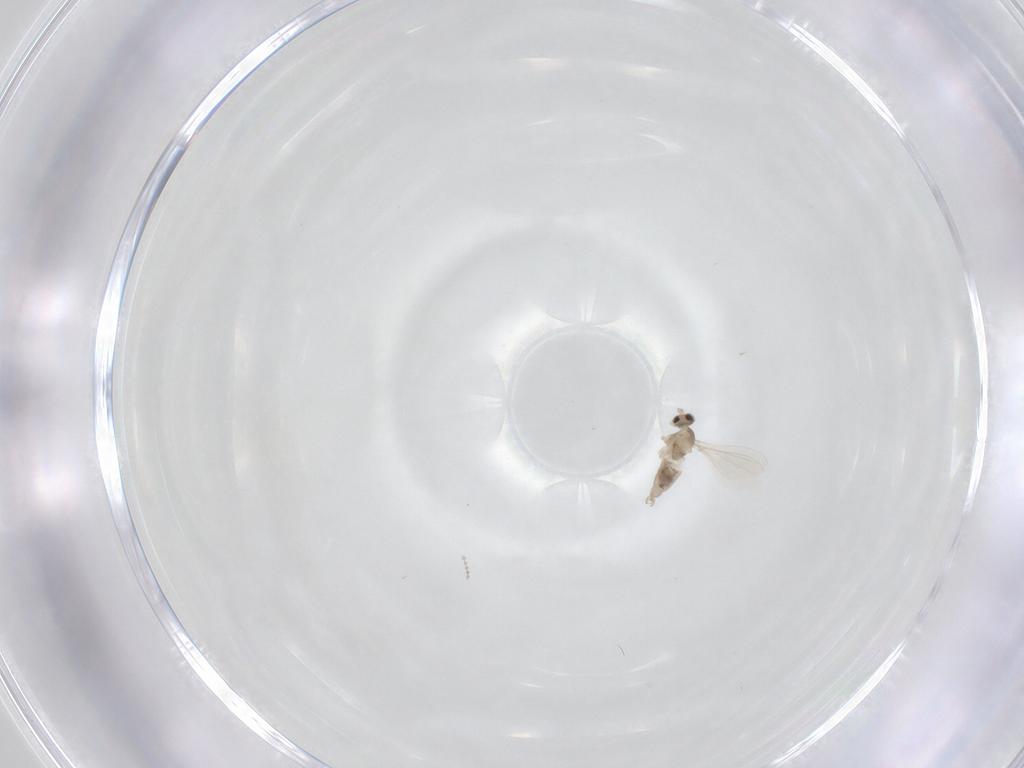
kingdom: Animalia
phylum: Arthropoda
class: Insecta
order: Diptera
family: Cecidomyiidae
